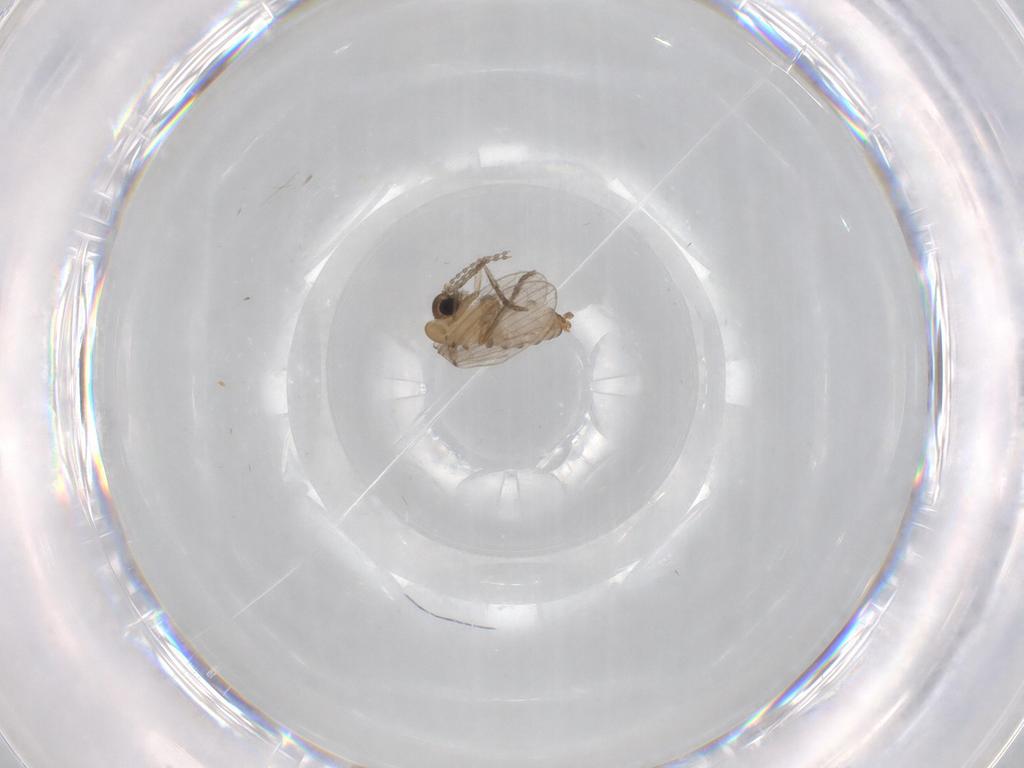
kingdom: Animalia
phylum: Arthropoda
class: Insecta
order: Diptera
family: Psychodidae
